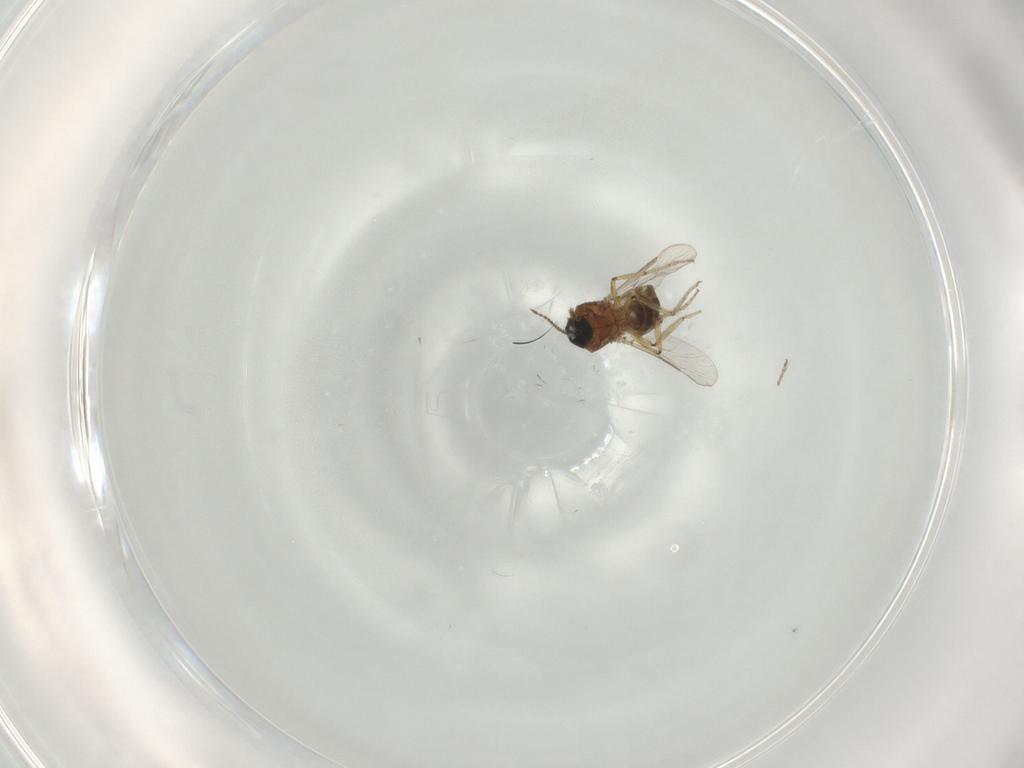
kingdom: Animalia
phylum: Arthropoda
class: Insecta
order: Diptera
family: Ceratopogonidae
